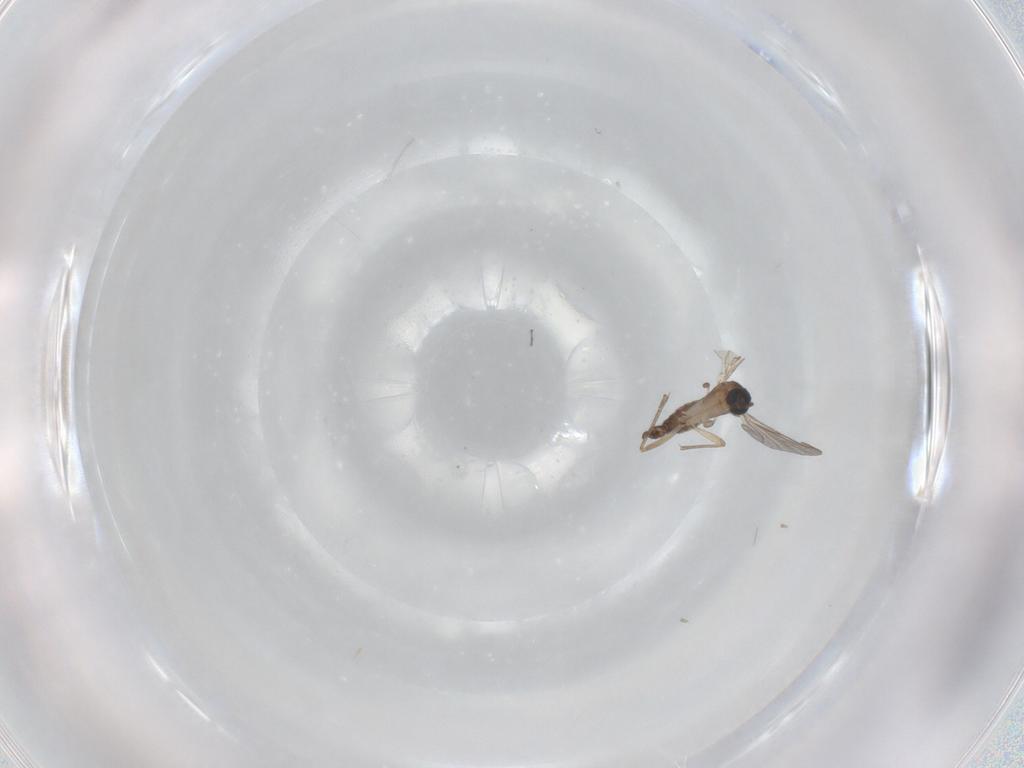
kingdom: Animalia
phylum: Arthropoda
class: Insecta
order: Diptera
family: Sciaridae
